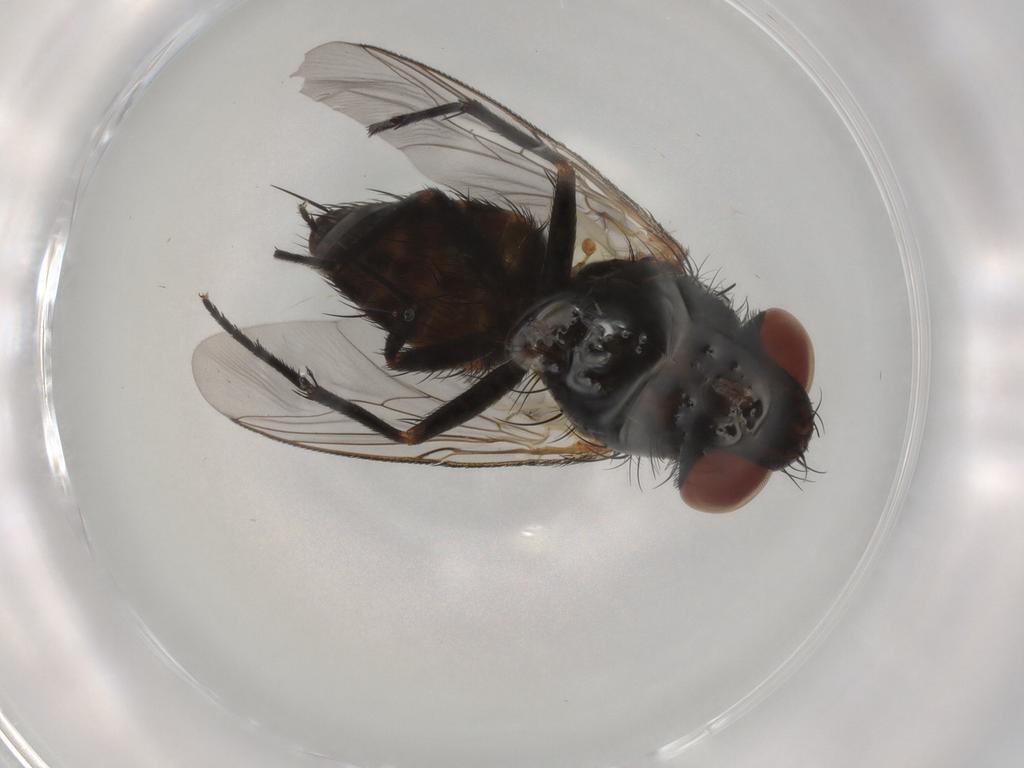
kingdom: Animalia
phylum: Arthropoda
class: Insecta
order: Diptera
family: Sarcophagidae
